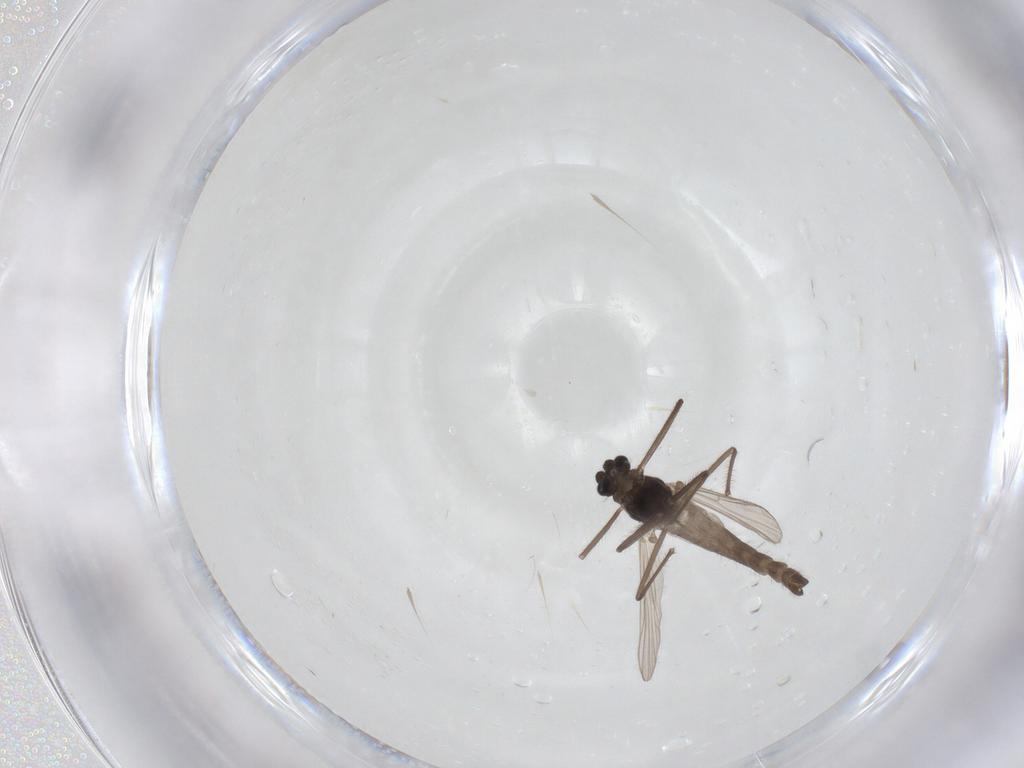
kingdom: Animalia
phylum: Arthropoda
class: Insecta
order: Diptera
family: Chironomidae
